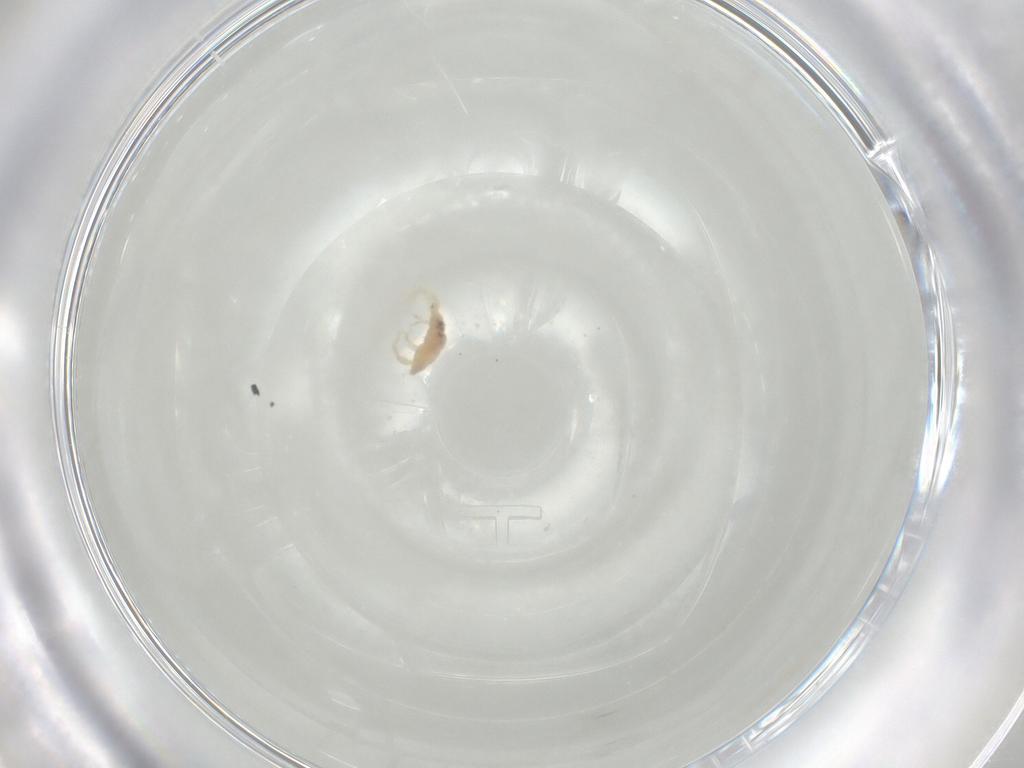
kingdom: Animalia
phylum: Arthropoda
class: Arachnida
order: Trombidiformes
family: Erythraeidae
